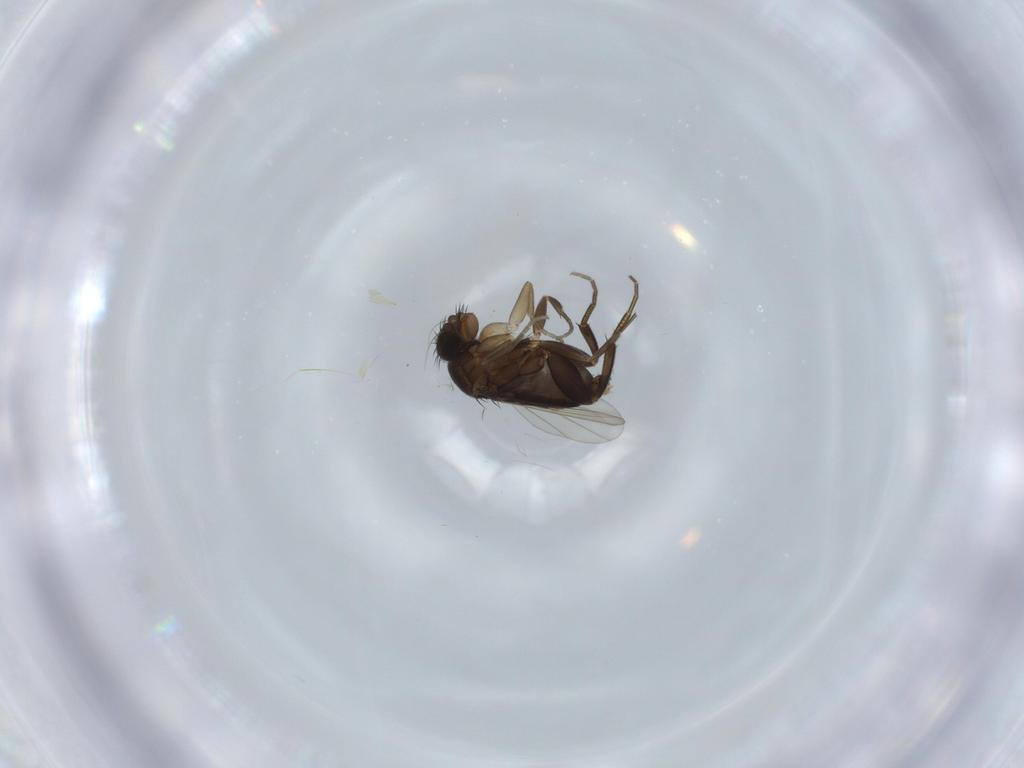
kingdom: Animalia
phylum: Arthropoda
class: Insecta
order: Diptera
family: Phoridae
